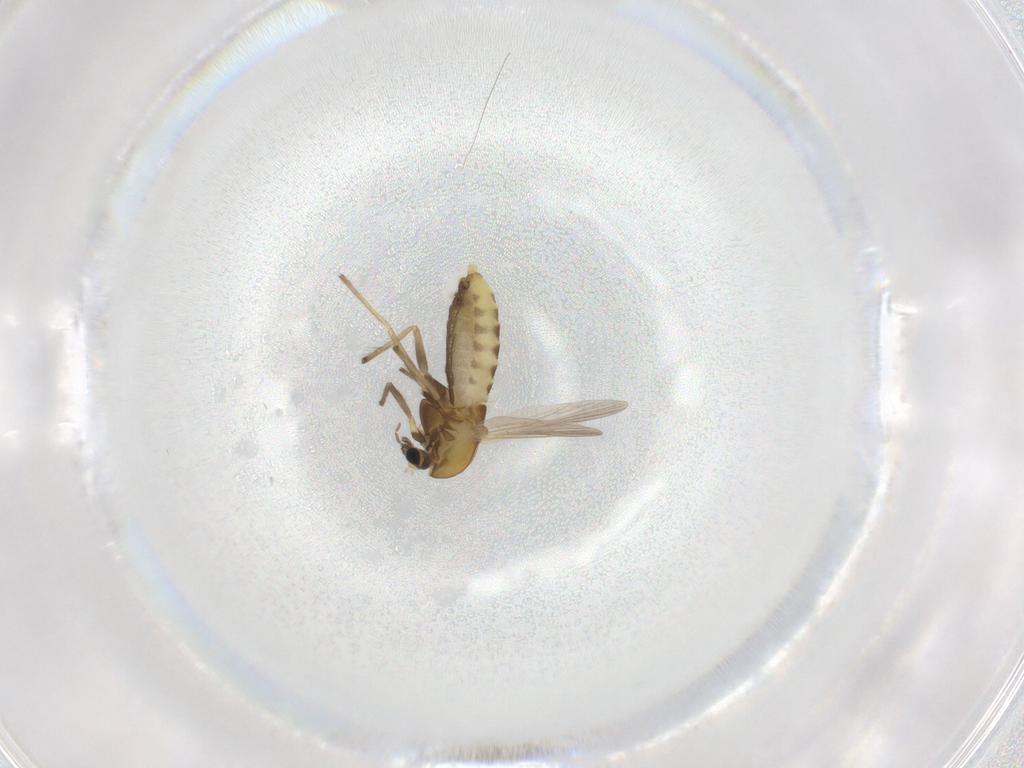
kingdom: Animalia
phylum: Arthropoda
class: Insecta
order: Diptera
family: Chironomidae
